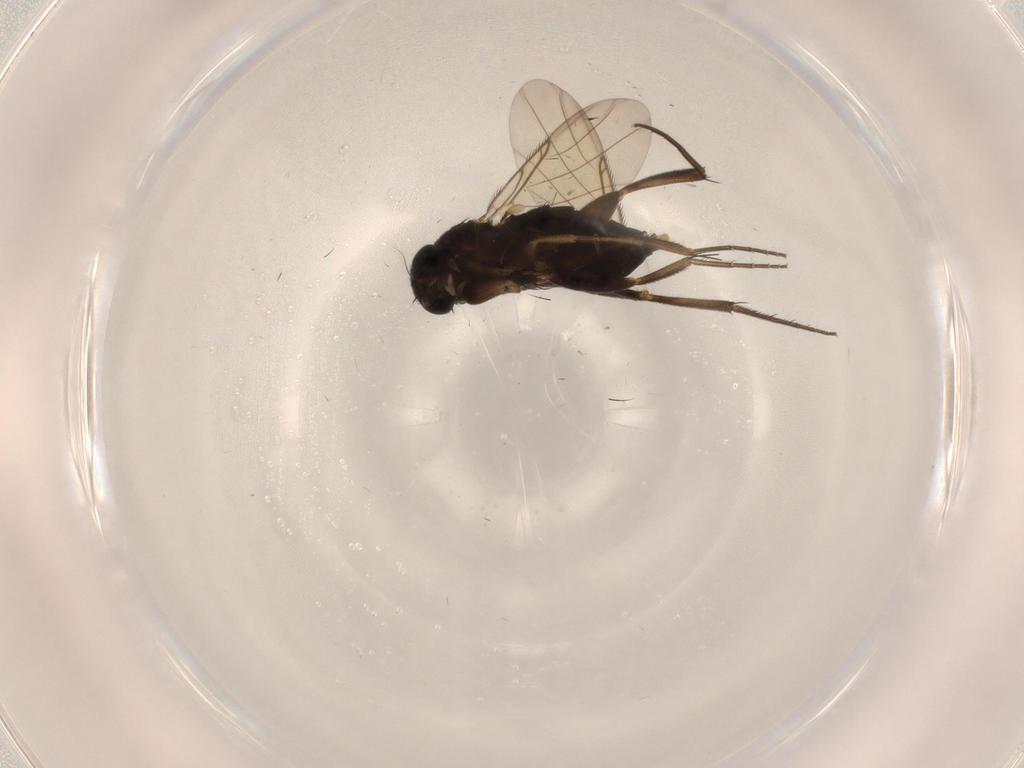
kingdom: Animalia
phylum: Arthropoda
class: Insecta
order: Diptera
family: Phoridae
